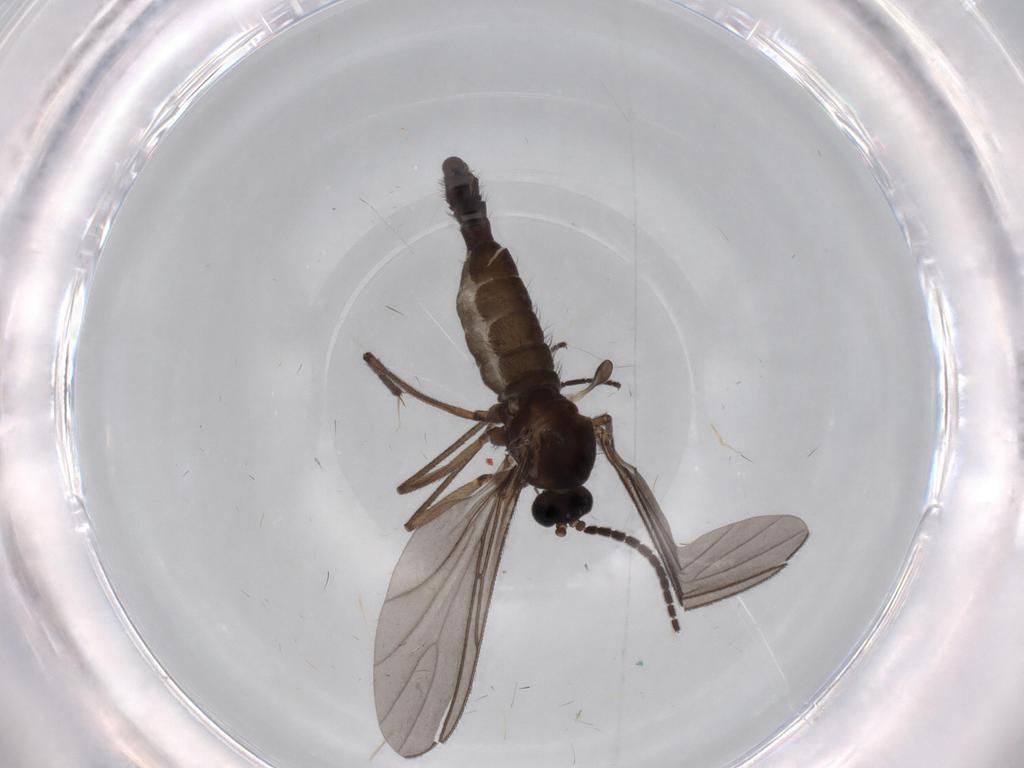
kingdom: Animalia
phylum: Arthropoda
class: Insecta
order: Diptera
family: Sciaridae
